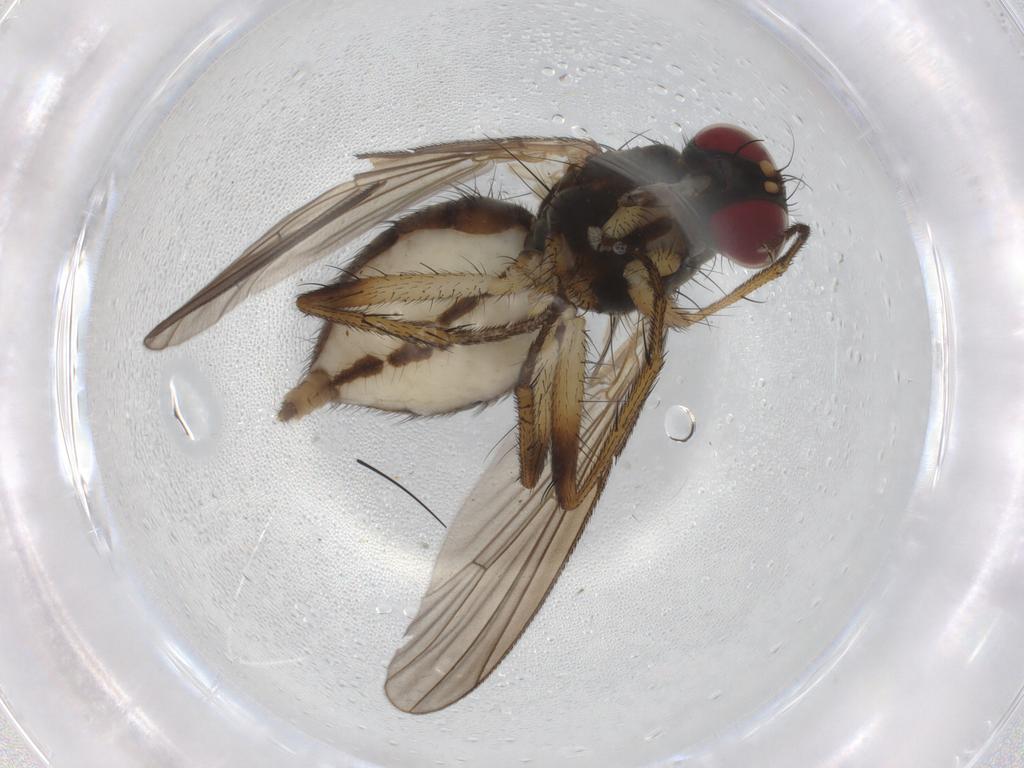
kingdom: Animalia
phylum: Arthropoda
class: Insecta
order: Diptera
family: Muscidae
